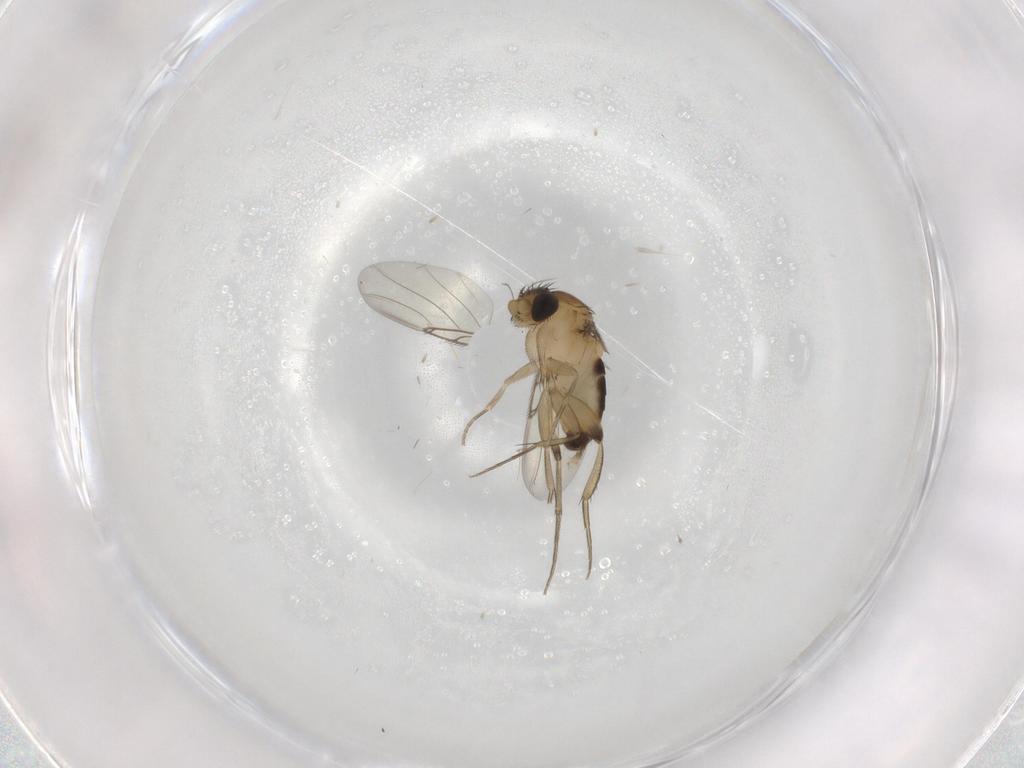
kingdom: Animalia
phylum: Arthropoda
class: Insecta
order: Diptera
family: Phoridae
